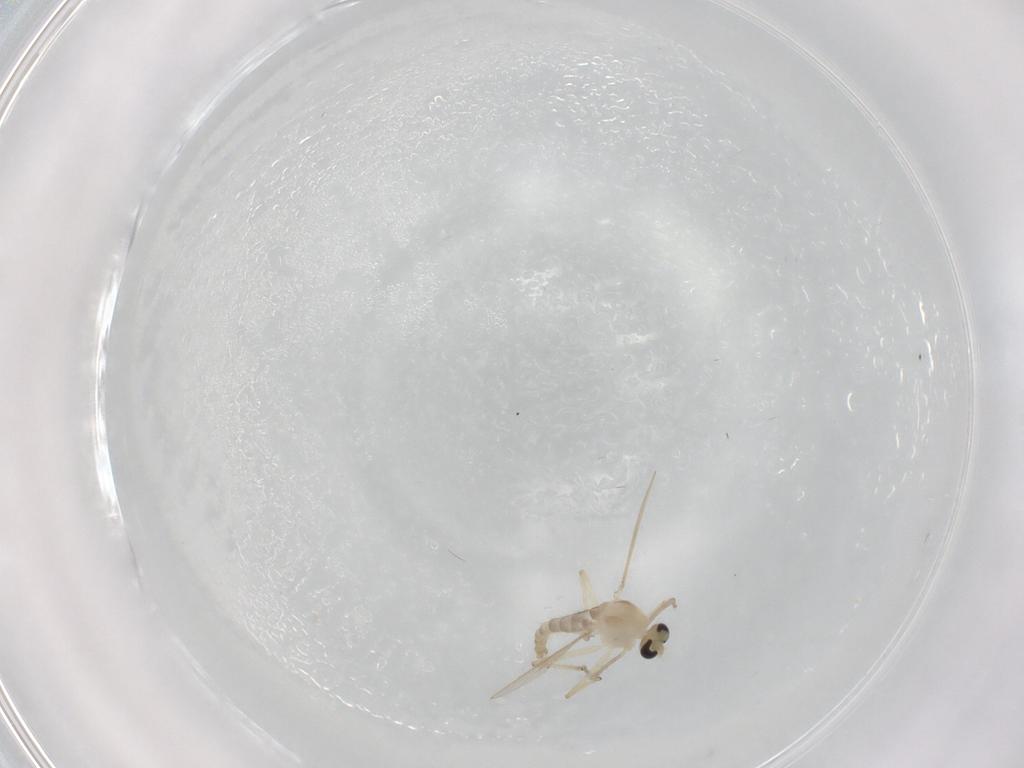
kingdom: Animalia
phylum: Arthropoda
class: Insecta
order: Diptera
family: Chironomidae
